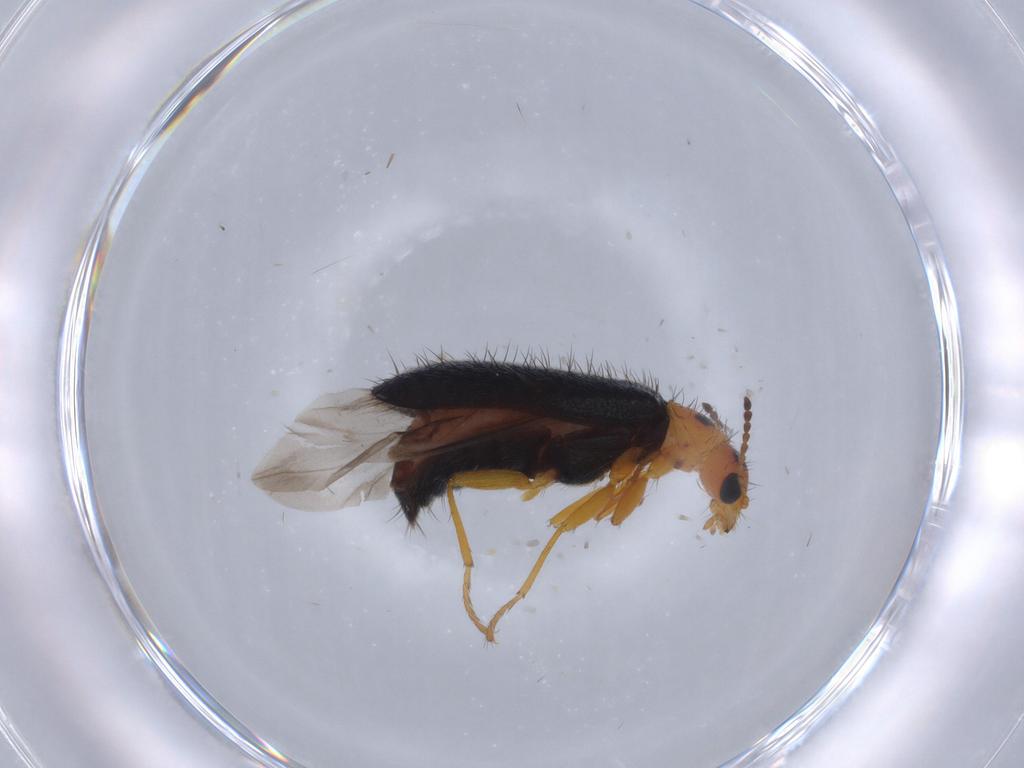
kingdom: Animalia
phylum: Arthropoda
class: Insecta
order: Coleoptera
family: Melyridae
